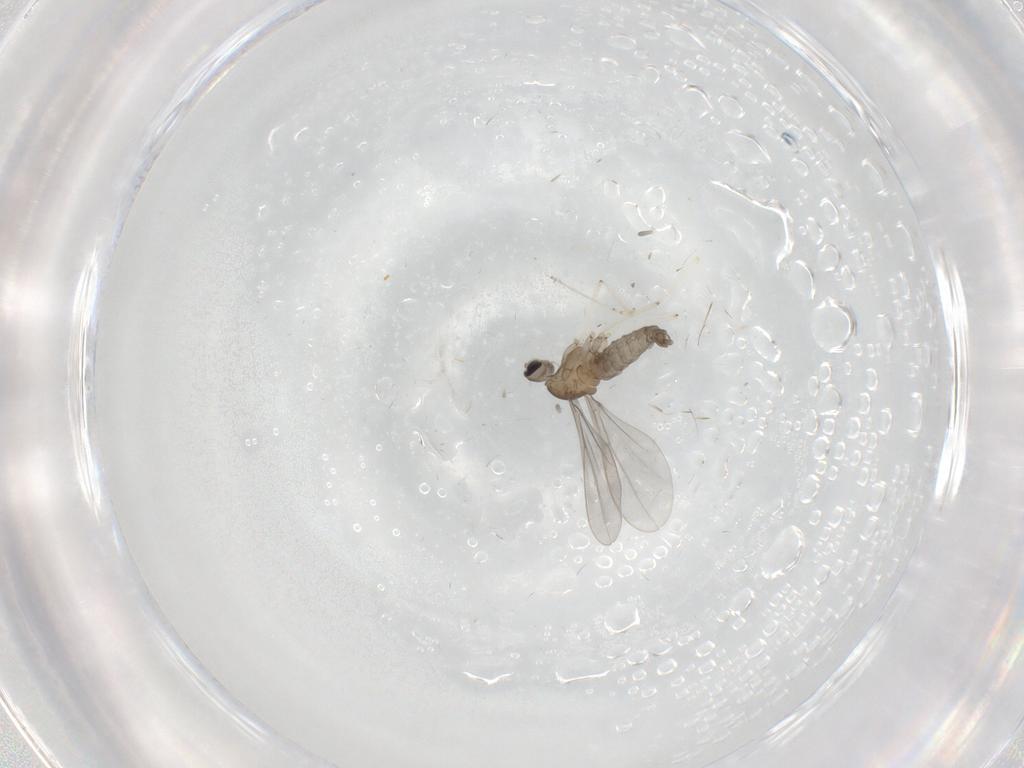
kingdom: Animalia
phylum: Arthropoda
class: Insecta
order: Diptera
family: Cecidomyiidae
